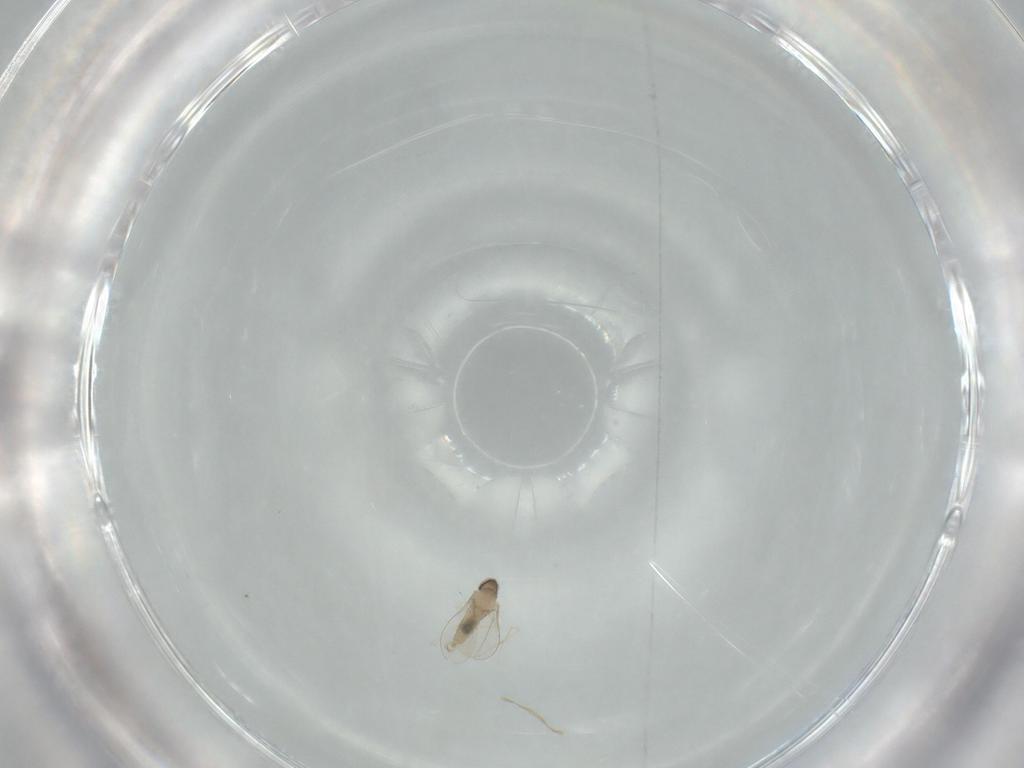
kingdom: Animalia
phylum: Arthropoda
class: Insecta
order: Diptera
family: Cecidomyiidae
